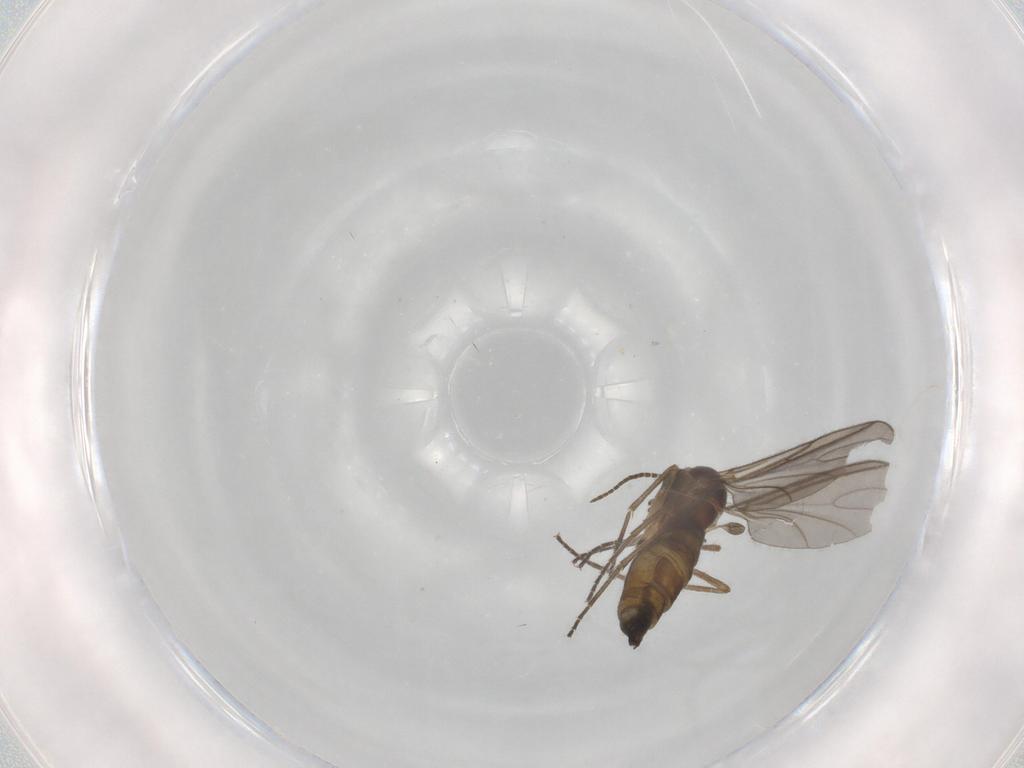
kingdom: Animalia
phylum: Arthropoda
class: Insecta
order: Diptera
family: Sciaridae
